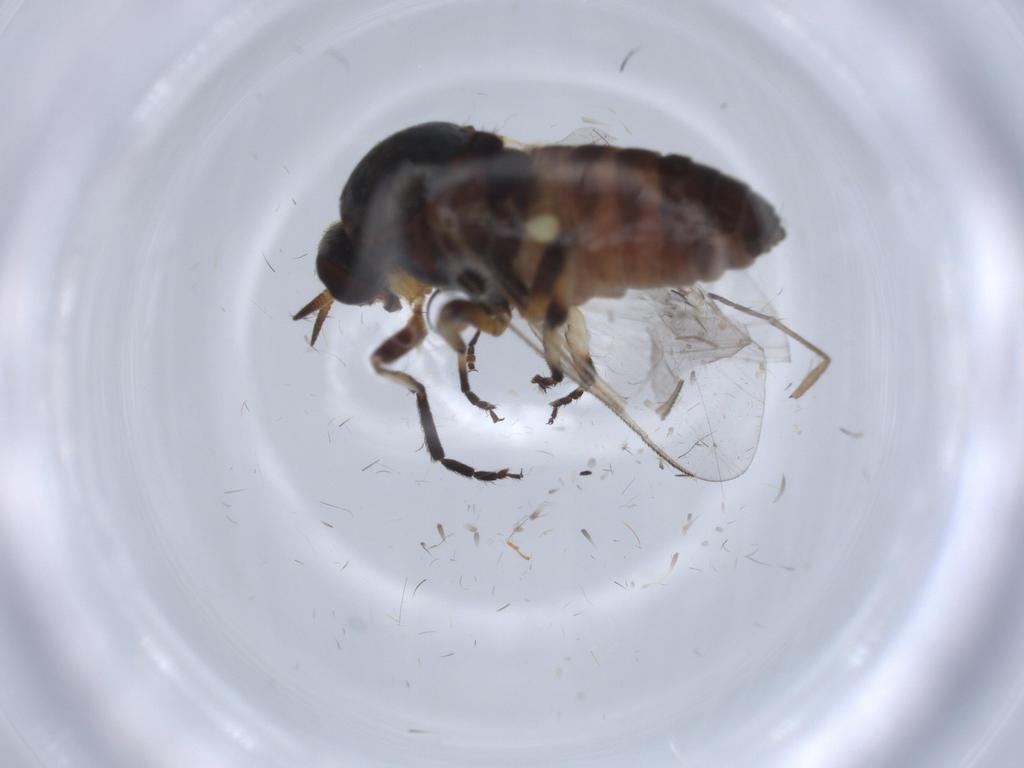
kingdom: Animalia
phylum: Arthropoda
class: Insecta
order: Diptera
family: Simuliidae
